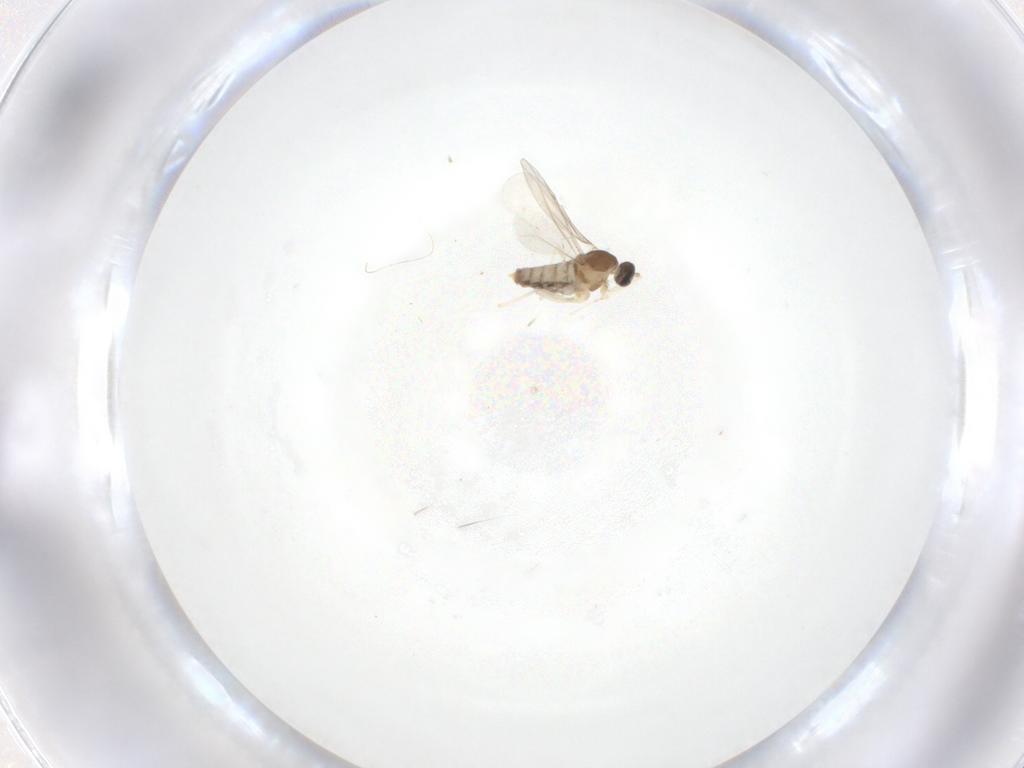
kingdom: Animalia
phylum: Arthropoda
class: Insecta
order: Diptera
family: Cecidomyiidae
